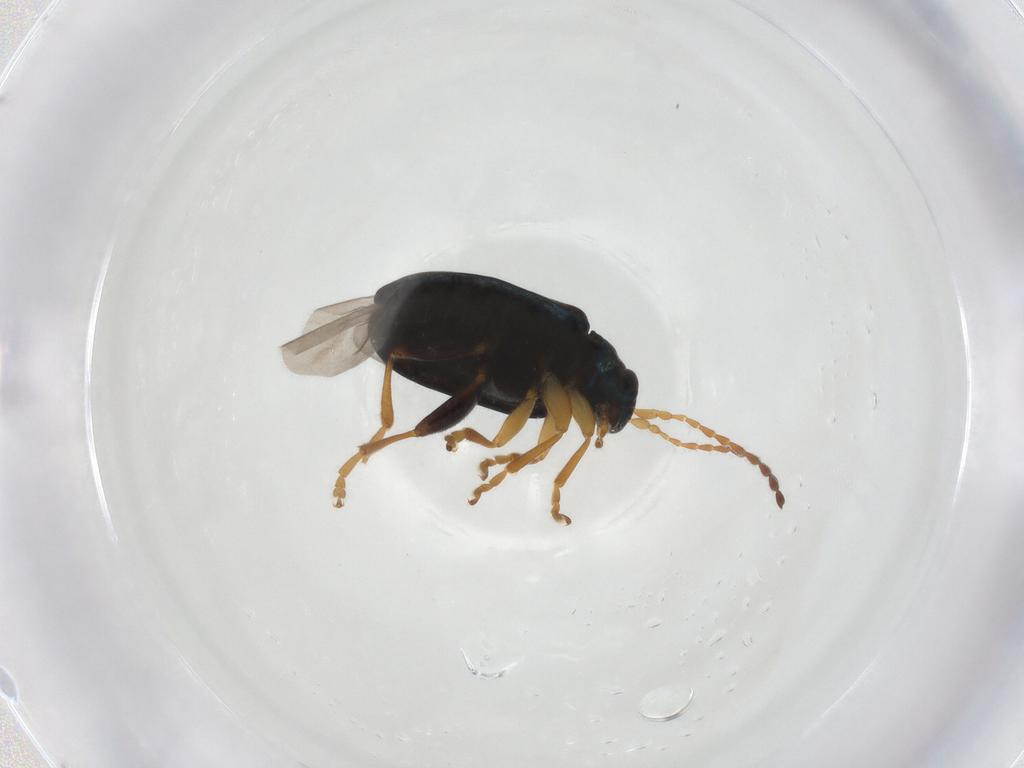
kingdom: Animalia
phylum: Arthropoda
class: Insecta
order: Coleoptera
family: Chrysomelidae
